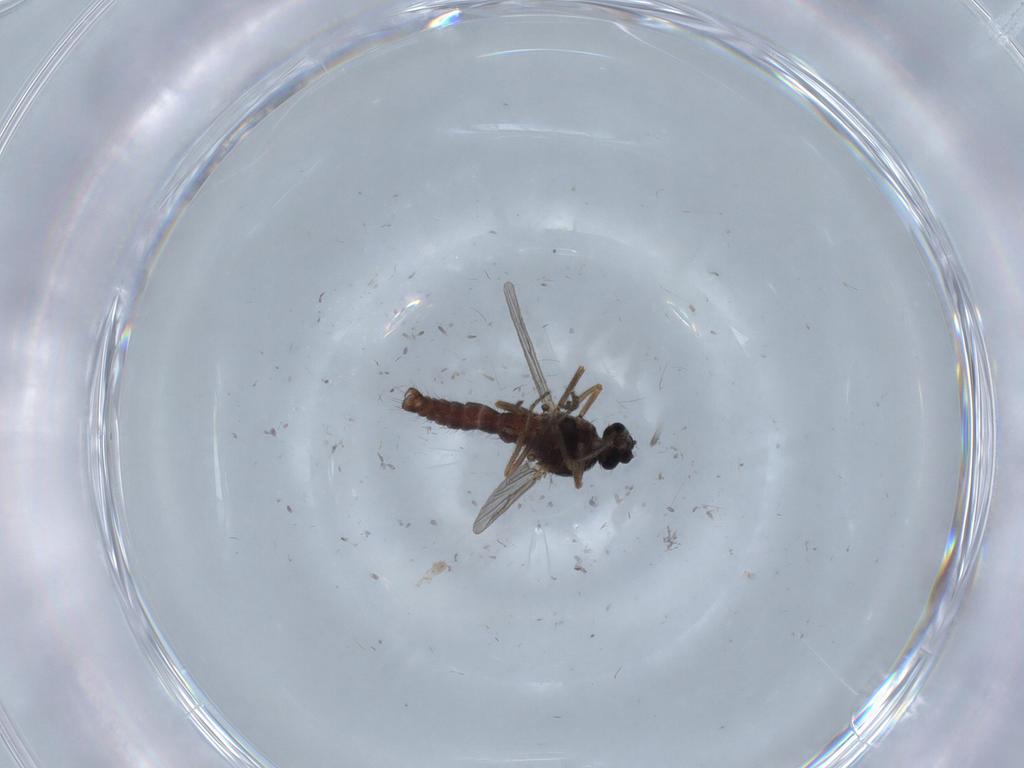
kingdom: Animalia
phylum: Arthropoda
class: Insecta
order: Diptera
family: Ceratopogonidae
